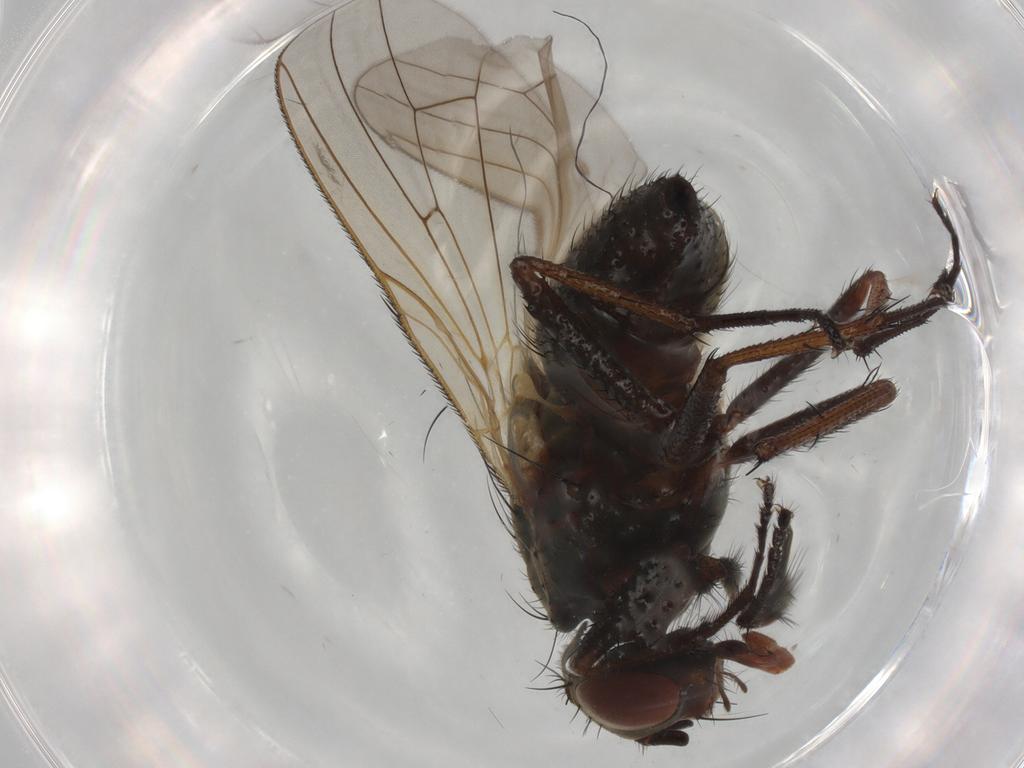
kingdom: Animalia
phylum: Arthropoda
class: Insecta
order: Diptera
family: Anthomyiidae
